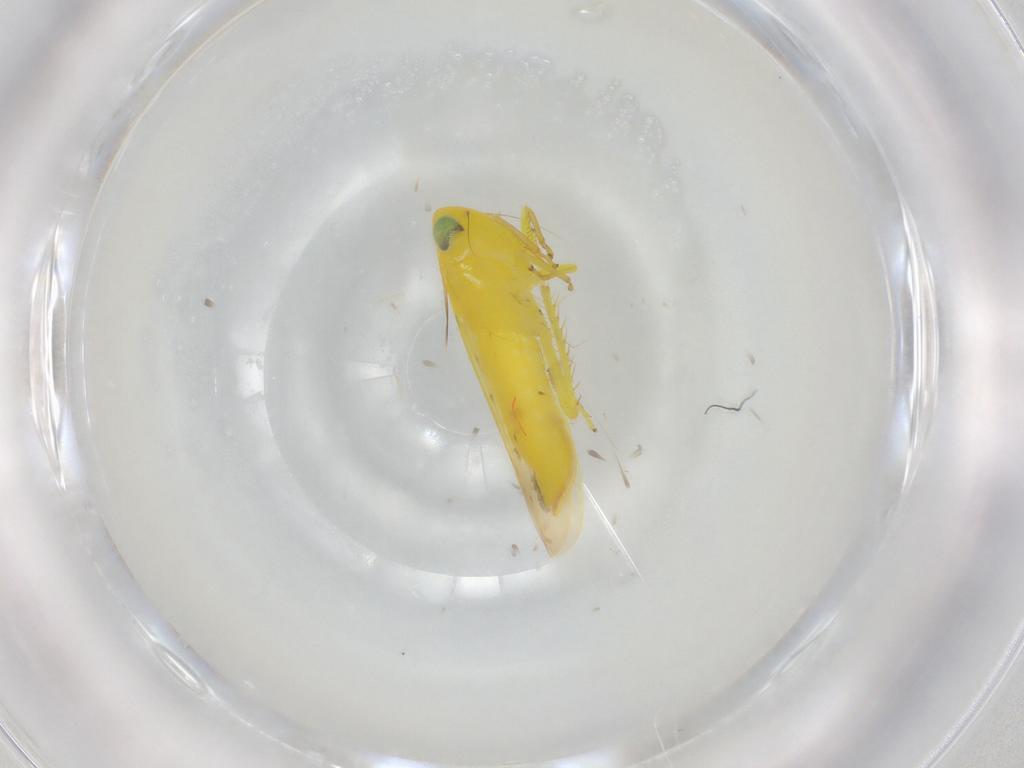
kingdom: Animalia
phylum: Arthropoda
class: Insecta
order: Hemiptera
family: Cicadellidae
